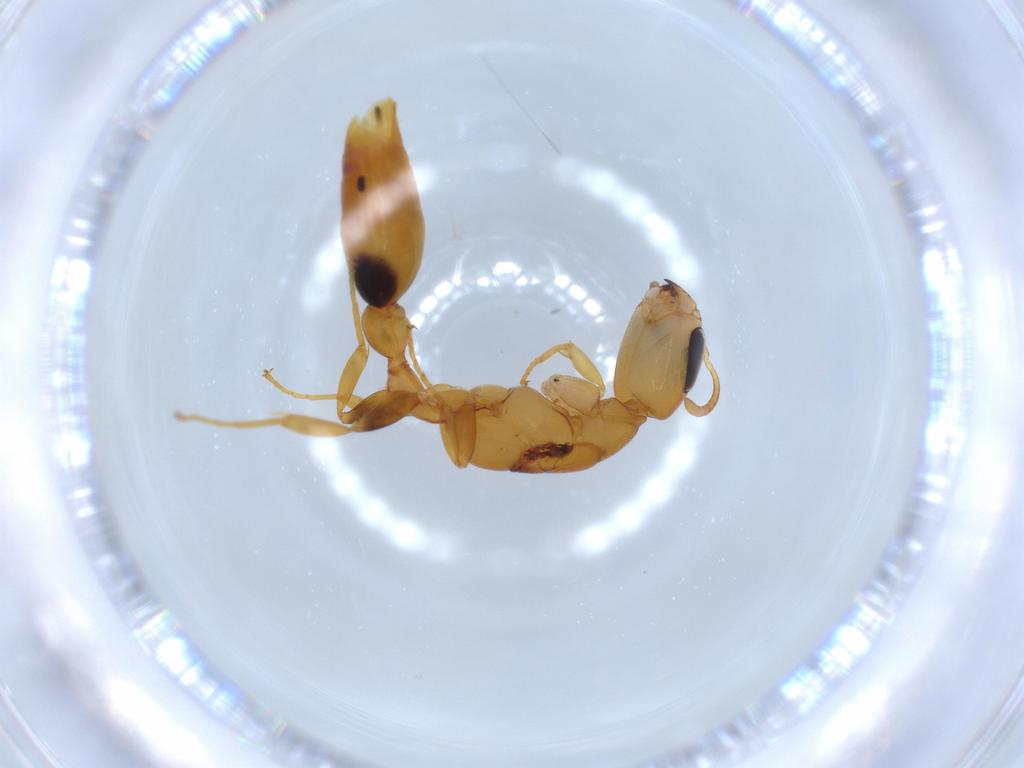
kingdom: Animalia
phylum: Arthropoda
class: Insecta
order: Hymenoptera
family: Formicidae
